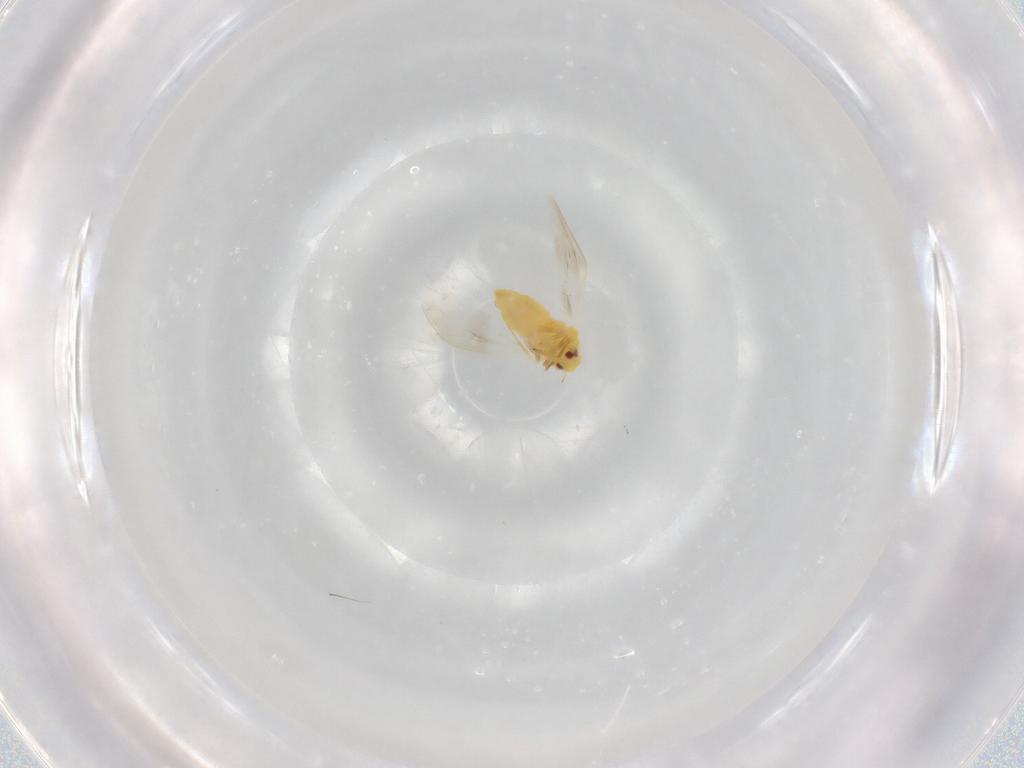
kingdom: Animalia
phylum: Arthropoda
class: Insecta
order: Hemiptera
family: Aleyrodidae
